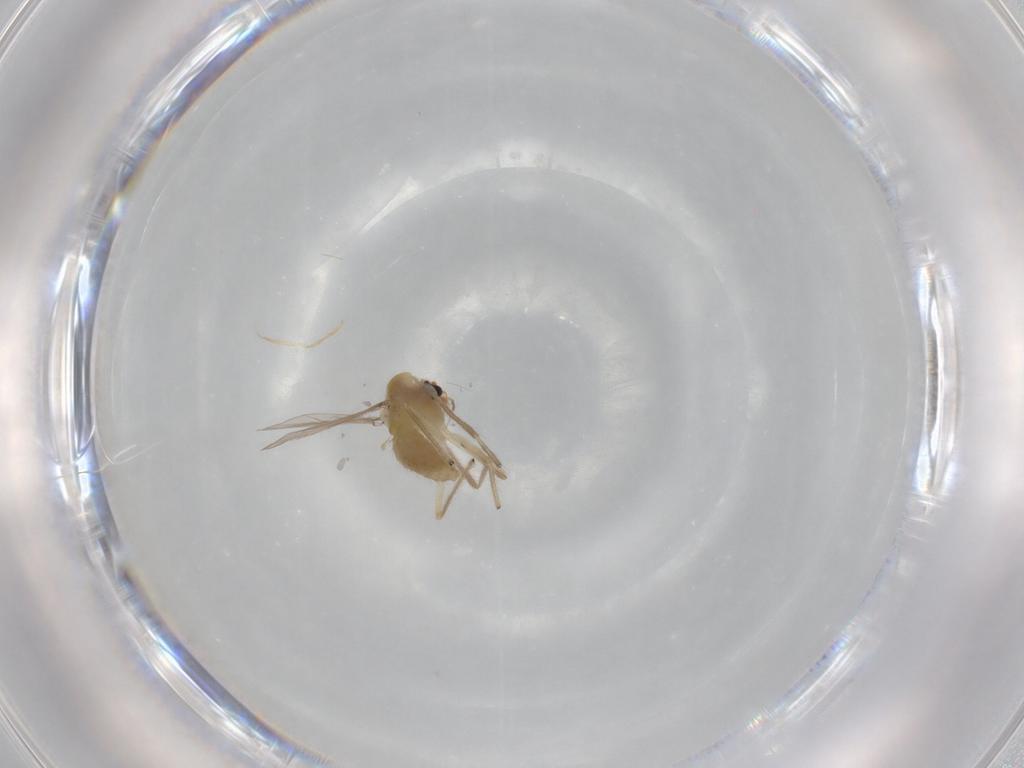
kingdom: Animalia
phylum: Arthropoda
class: Insecta
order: Diptera
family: Chironomidae
